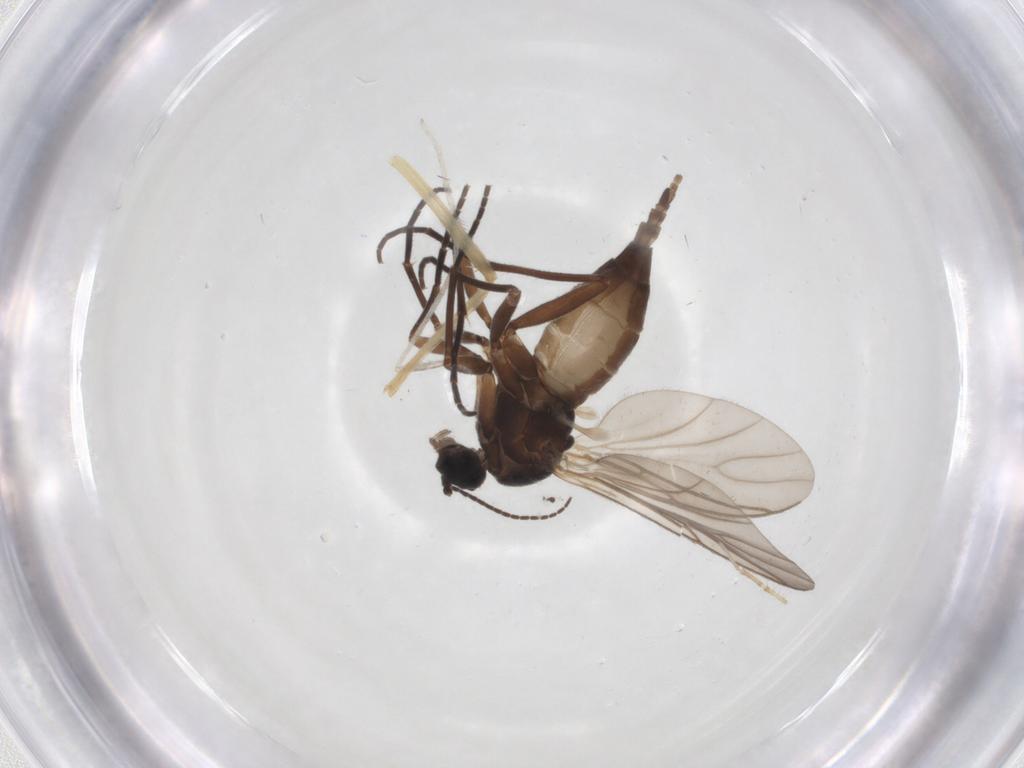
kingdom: Animalia
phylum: Arthropoda
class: Insecta
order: Diptera
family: Sciaridae
